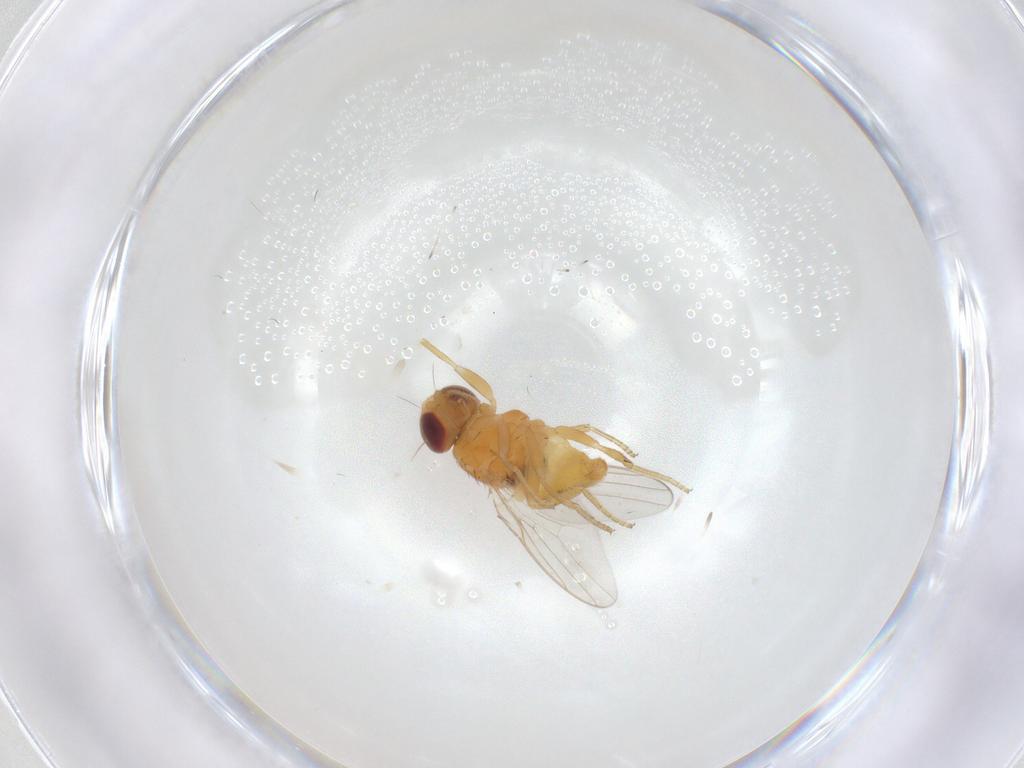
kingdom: Animalia
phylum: Arthropoda
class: Insecta
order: Diptera
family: Chloropidae
